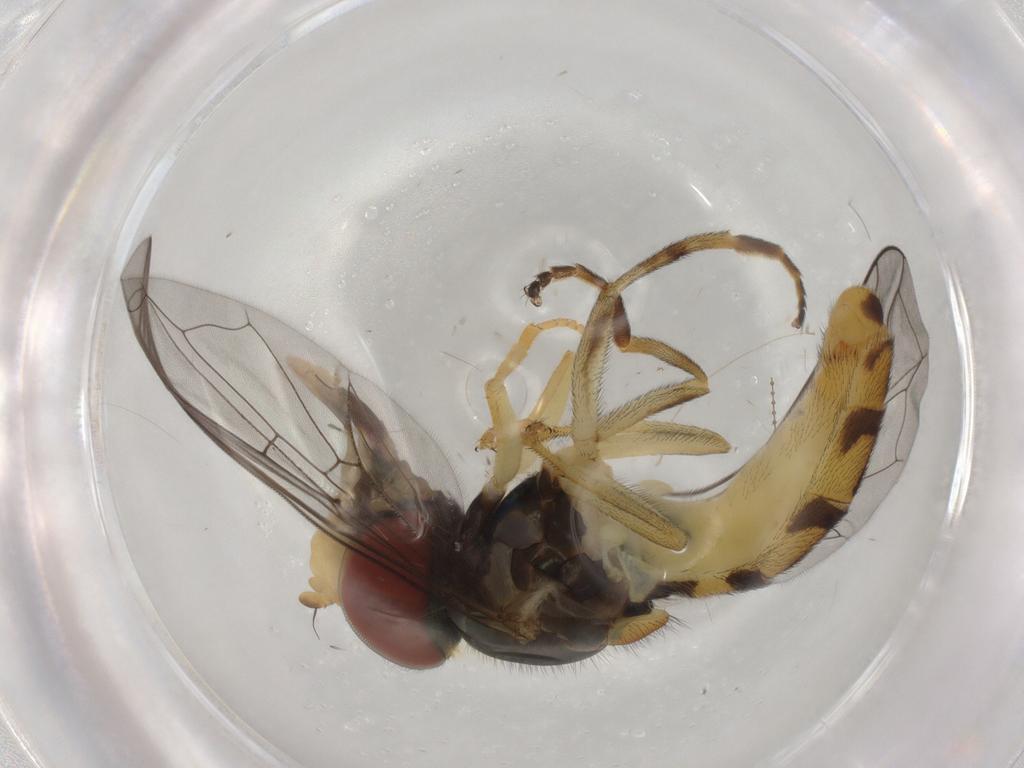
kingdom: Animalia
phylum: Arthropoda
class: Insecta
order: Diptera
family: Syrphidae
